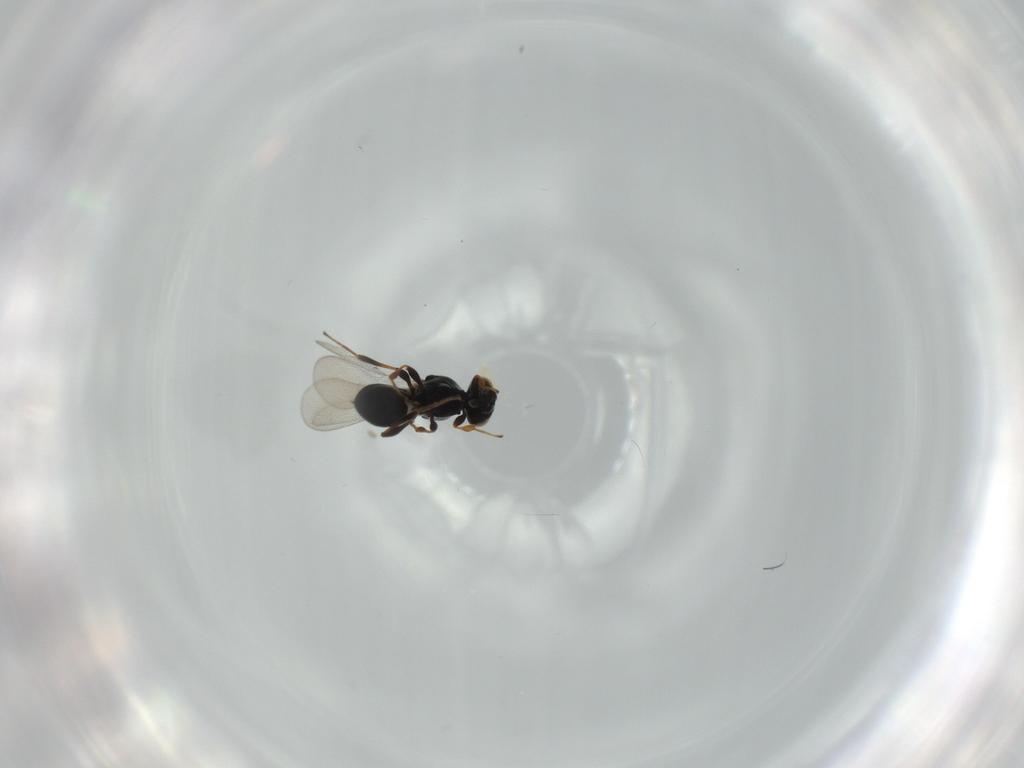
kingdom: Animalia
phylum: Arthropoda
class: Insecta
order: Hymenoptera
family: Platygastridae
